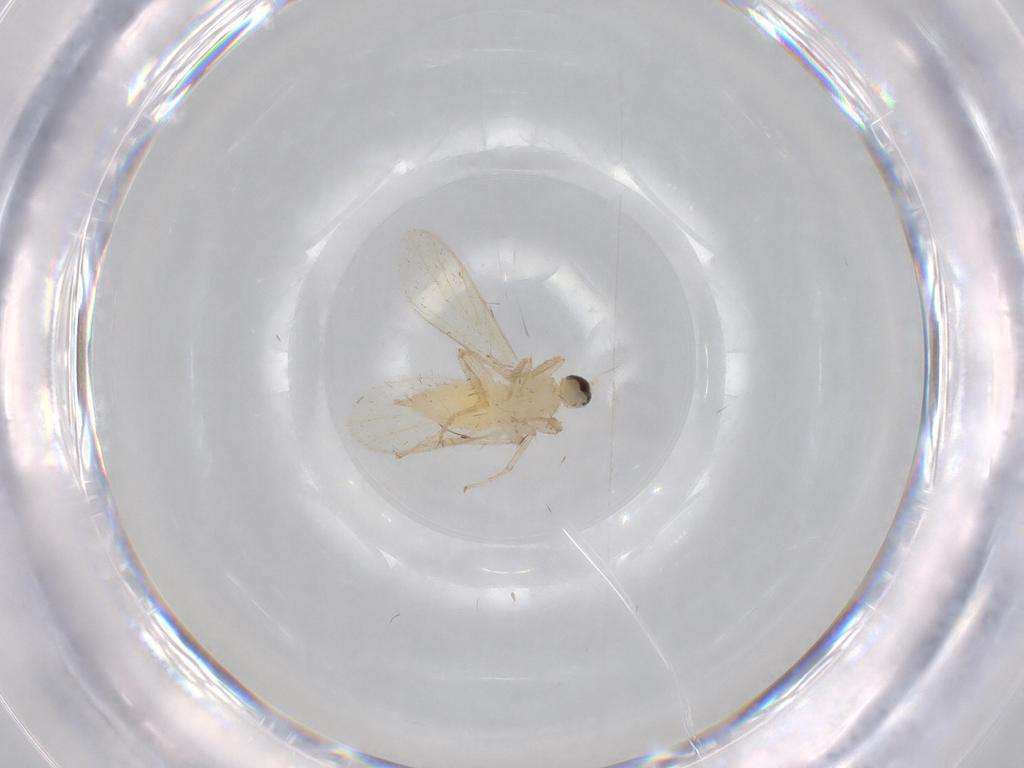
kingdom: Animalia
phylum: Arthropoda
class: Insecta
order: Diptera
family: Hybotidae
